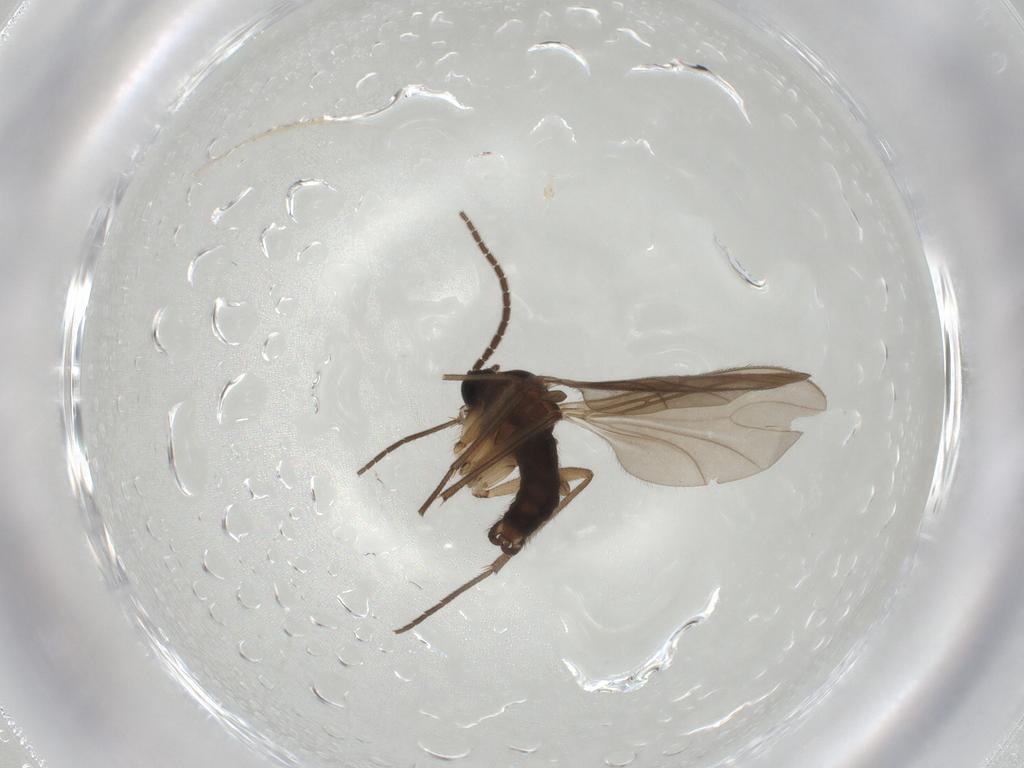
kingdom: Animalia
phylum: Arthropoda
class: Insecta
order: Diptera
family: Sciaridae
